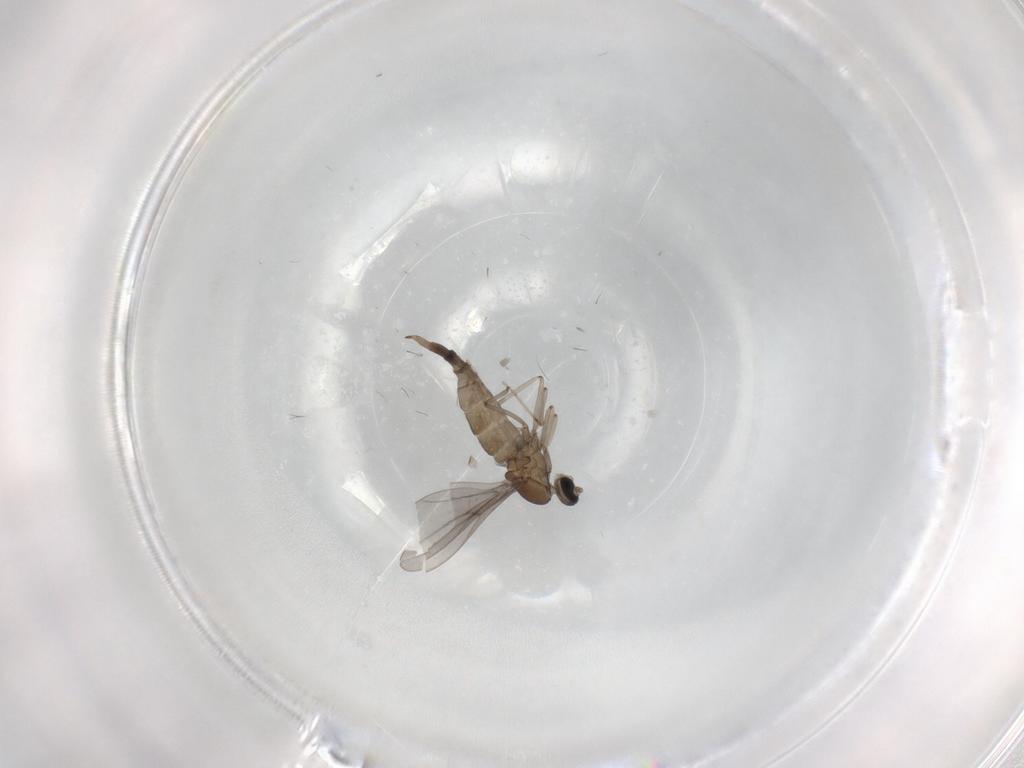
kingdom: Animalia
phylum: Arthropoda
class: Insecta
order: Diptera
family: Cecidomyiidae
